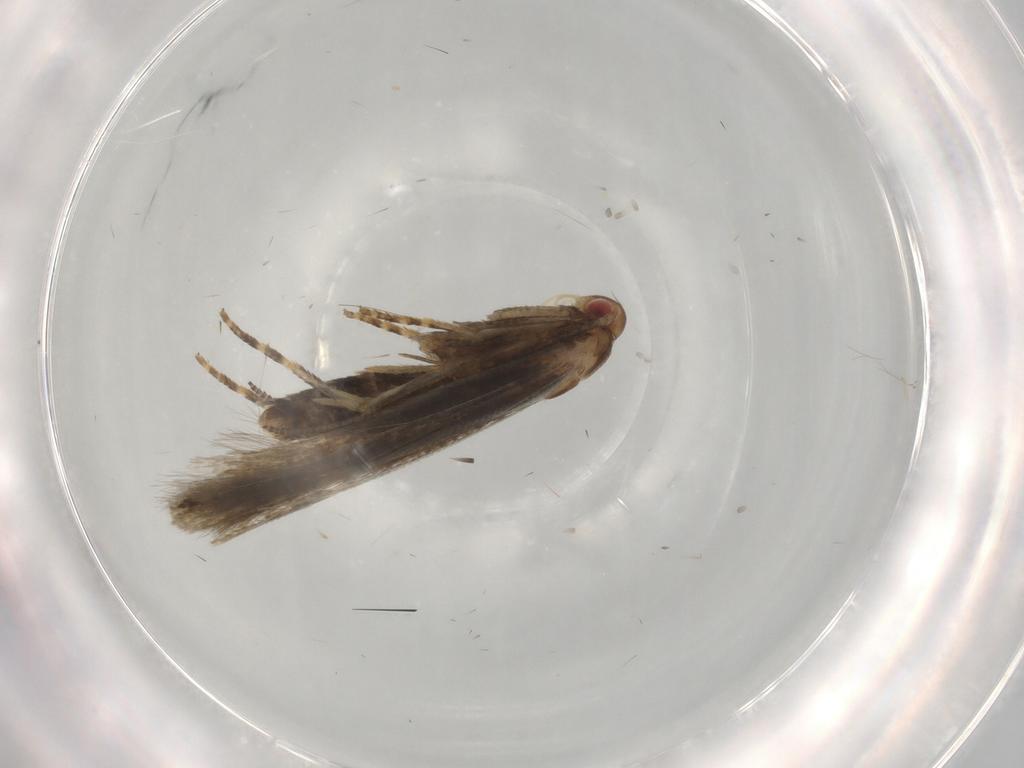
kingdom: Animalia
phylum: Arthropoda
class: Insecta
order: Lepidoptera
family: Momphidae
